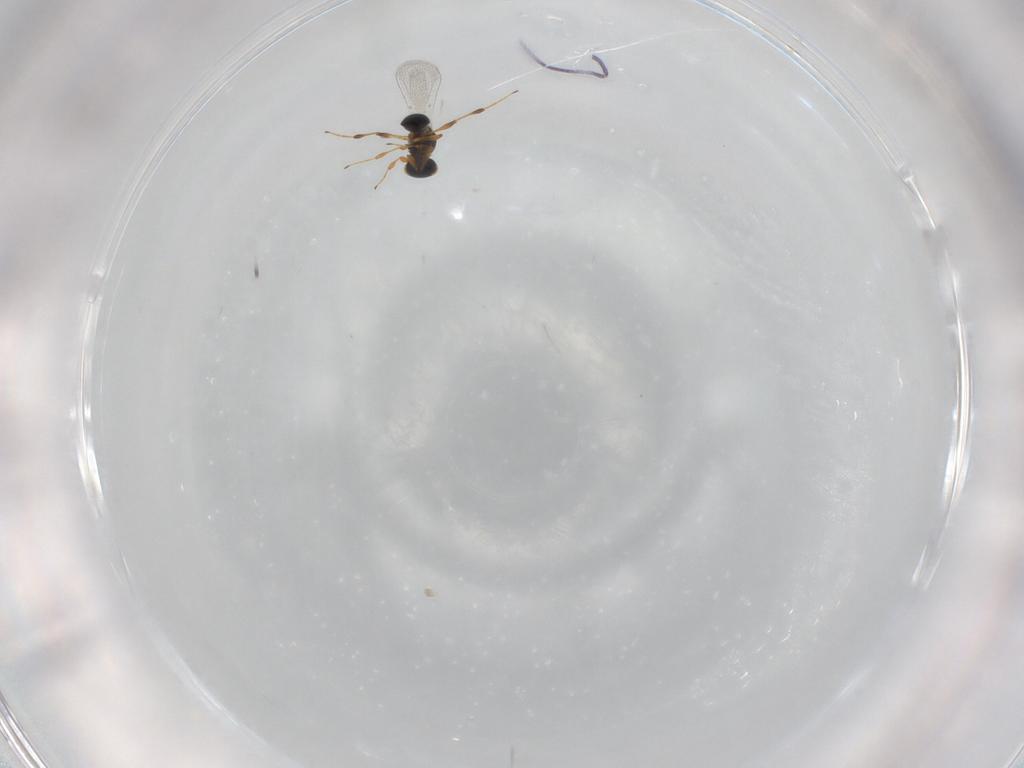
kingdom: Animalia
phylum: Arthropoda
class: Insecta
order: Hymenoptera
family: Platygastridae
